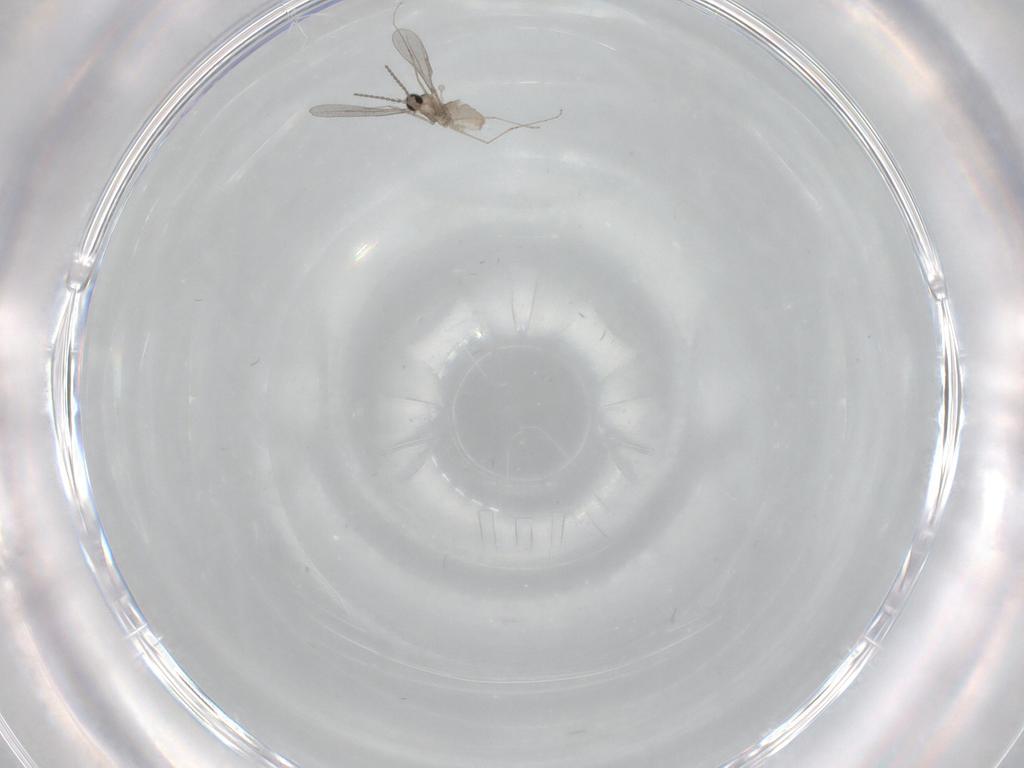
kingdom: Animalia
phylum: Arthropoda
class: Insecta
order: Diptera
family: Cecidomyiidae
